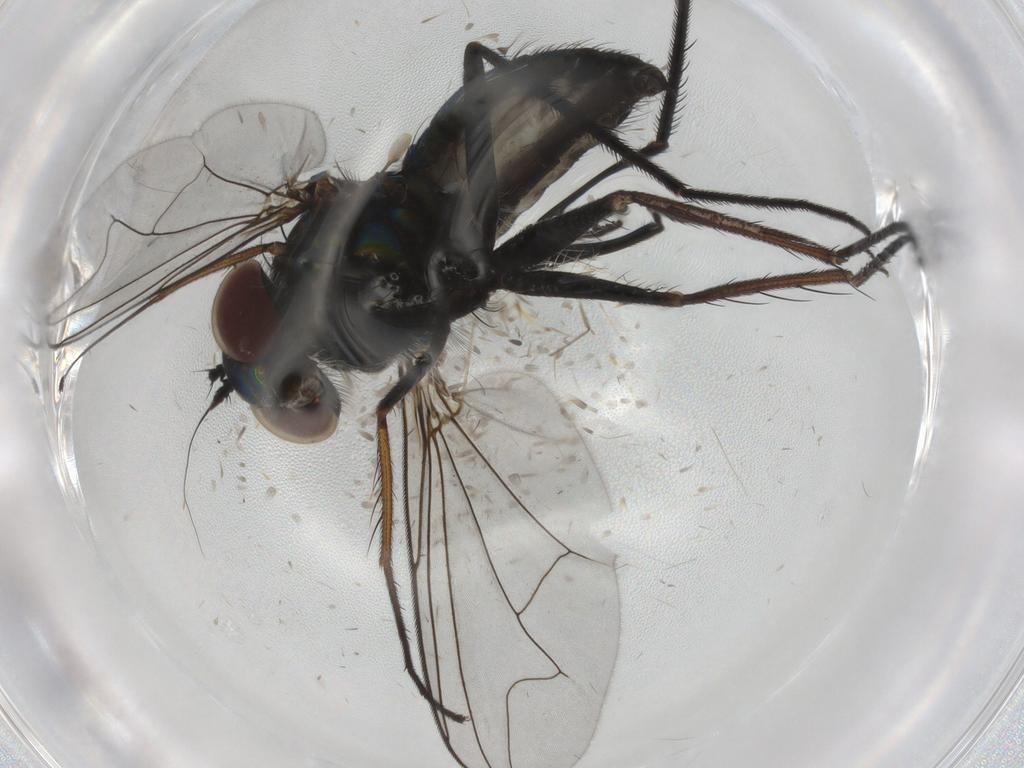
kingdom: Animalia
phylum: Arthropoda
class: Insecta
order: Diptera
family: Dolichopodidae
